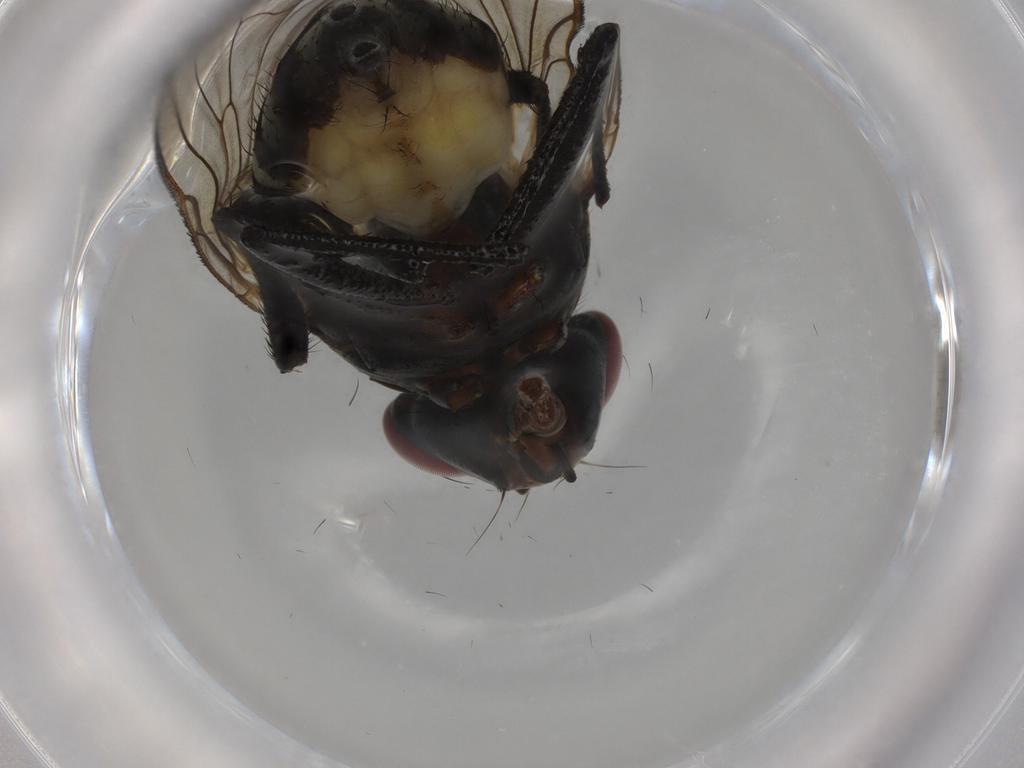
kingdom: Animalia
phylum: Arthropoda
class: Insecta
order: Diptera
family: Anthomyiidae
